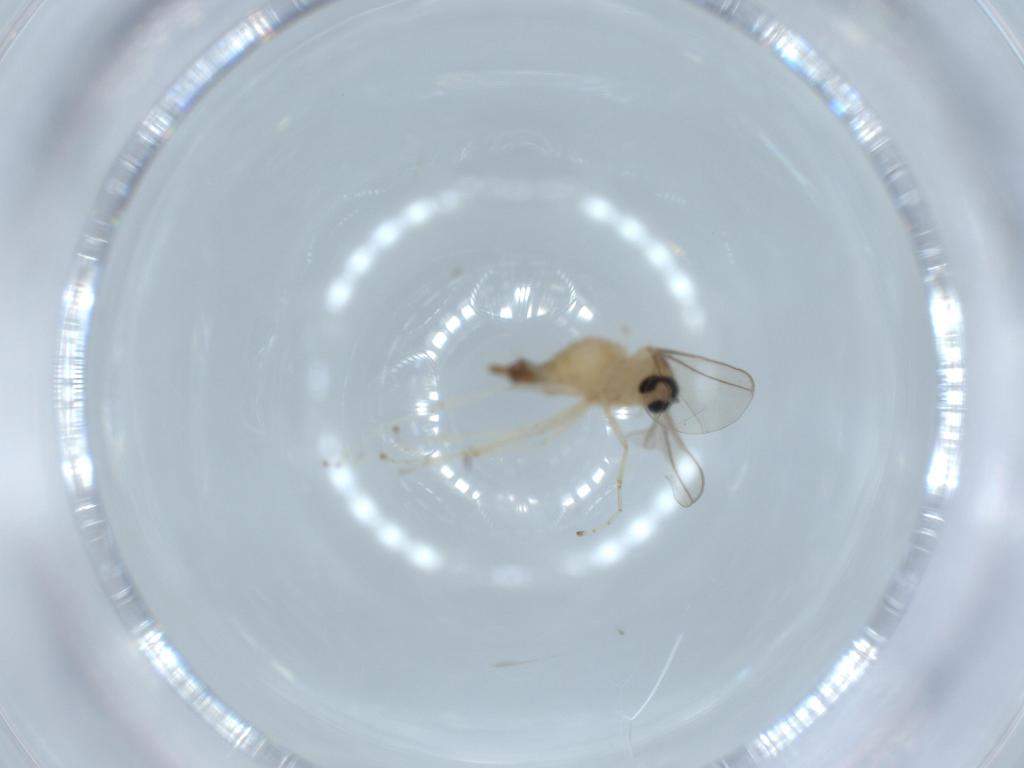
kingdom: Animalia
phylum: Arthropoda
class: Insecta
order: Diptera
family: Cecidomyiidae
